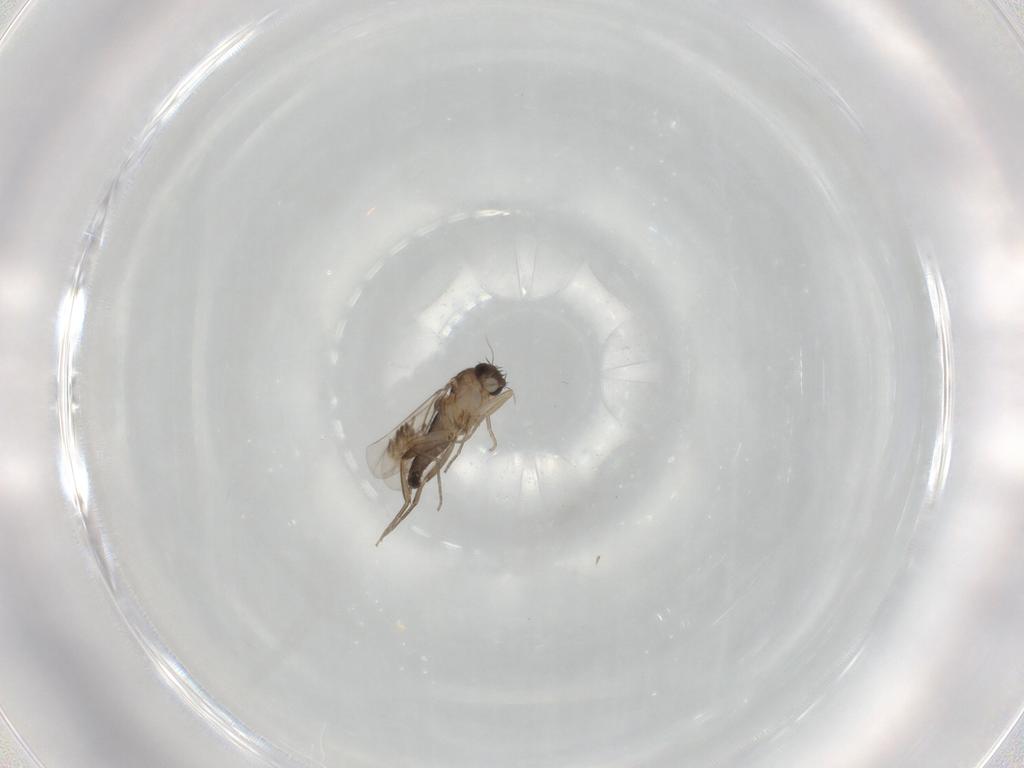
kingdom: Animalia
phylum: Arthropoda
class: Insecta
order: Diptera
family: Phoridae
